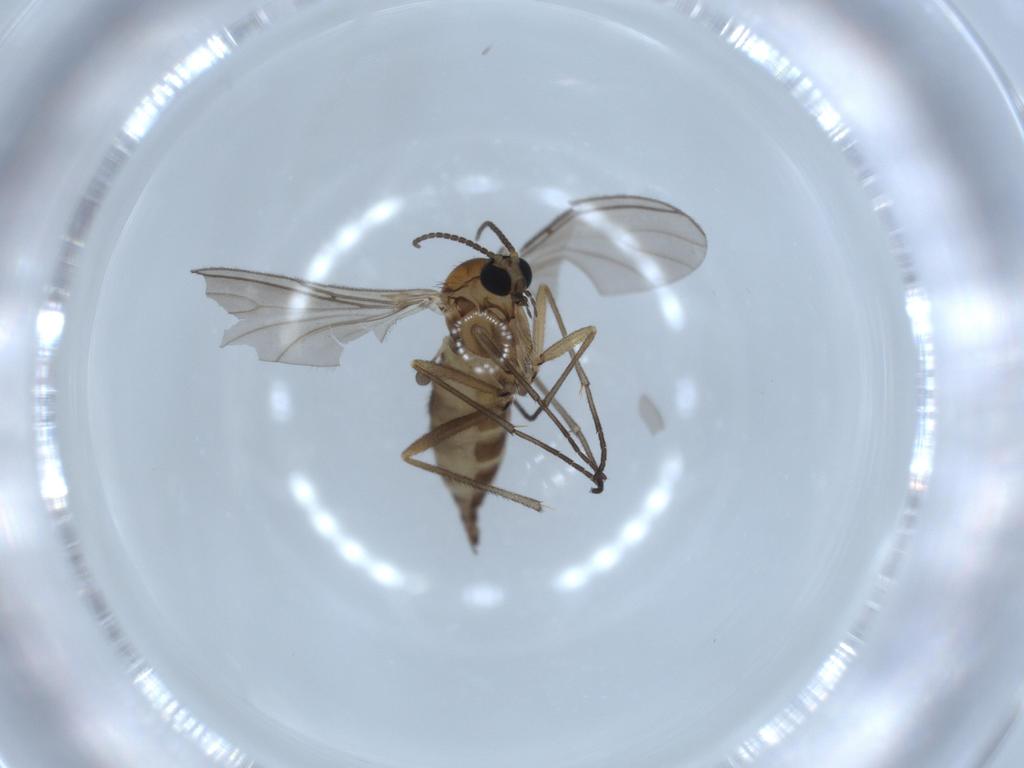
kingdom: Animalia
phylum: Arthropoda
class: Insecta
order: Diptera
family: Sciaridae
